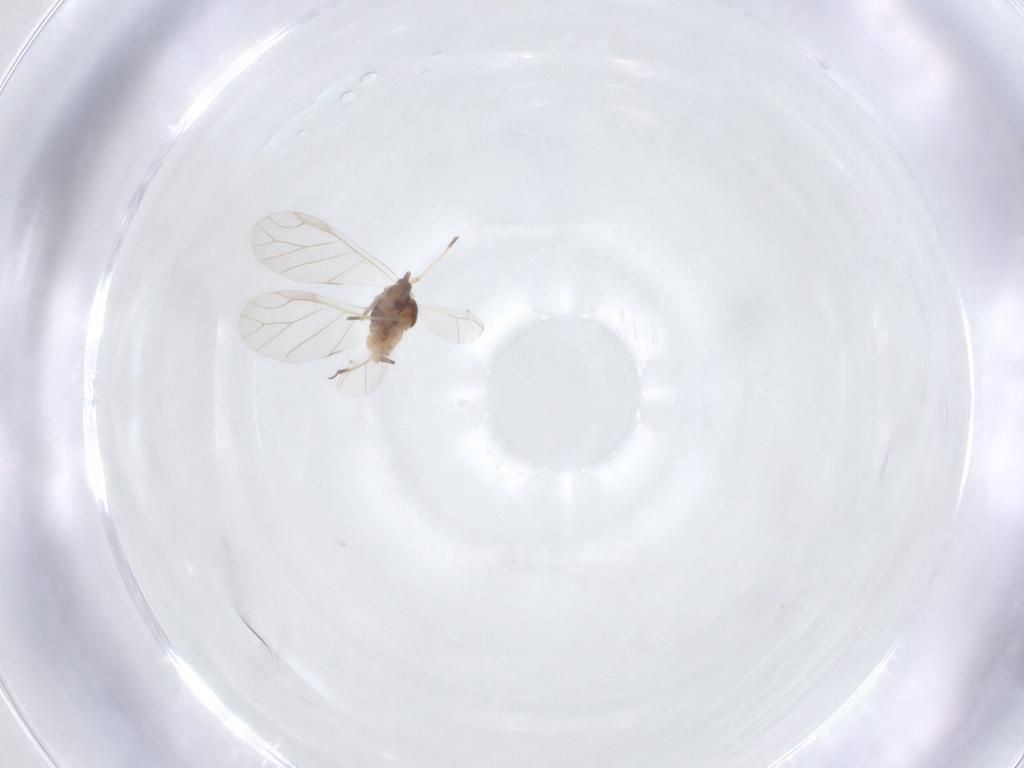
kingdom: Animalia
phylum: Arthropoda
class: Insecta
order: Hemiptera
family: Aphididae
